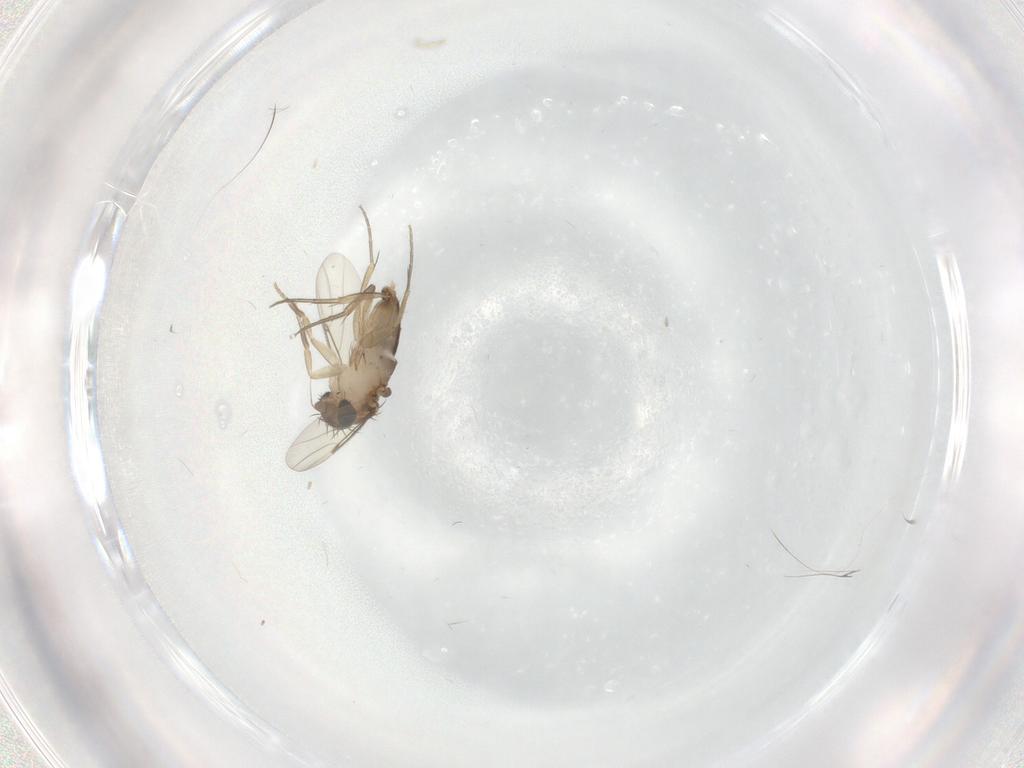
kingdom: Animalia
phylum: Arthropoda
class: Insecta
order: Diptera
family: Phoridae
